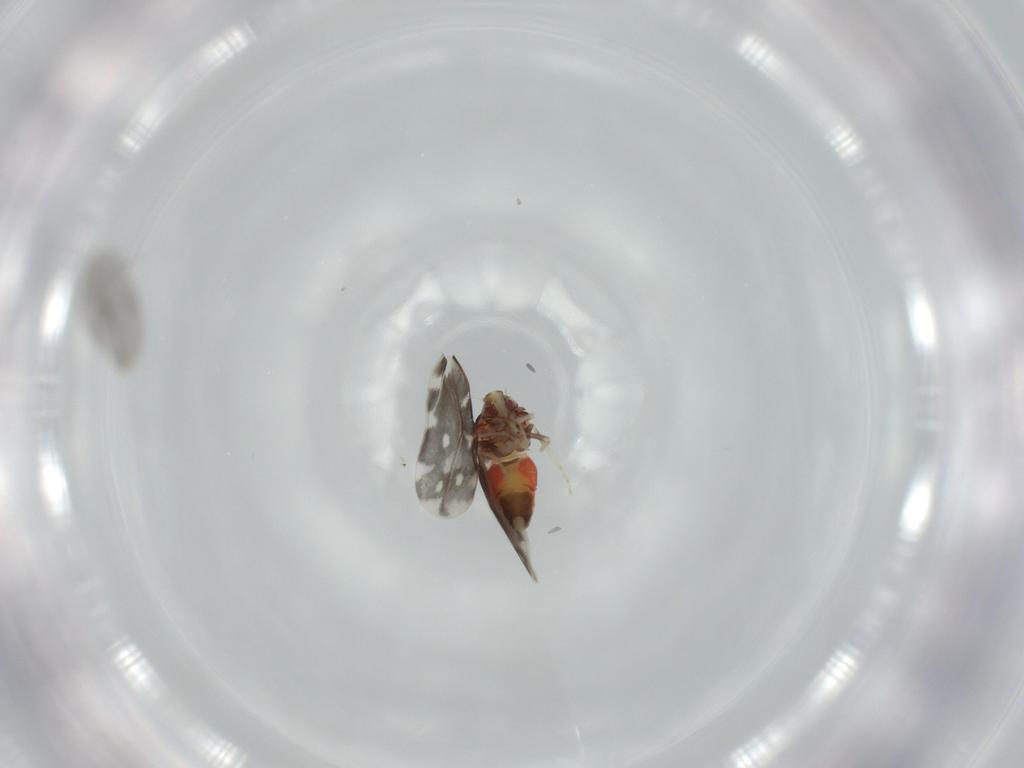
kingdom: Animalia
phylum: Arthropoda
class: Insecta
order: Hemiptera
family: Aleyrodidae
